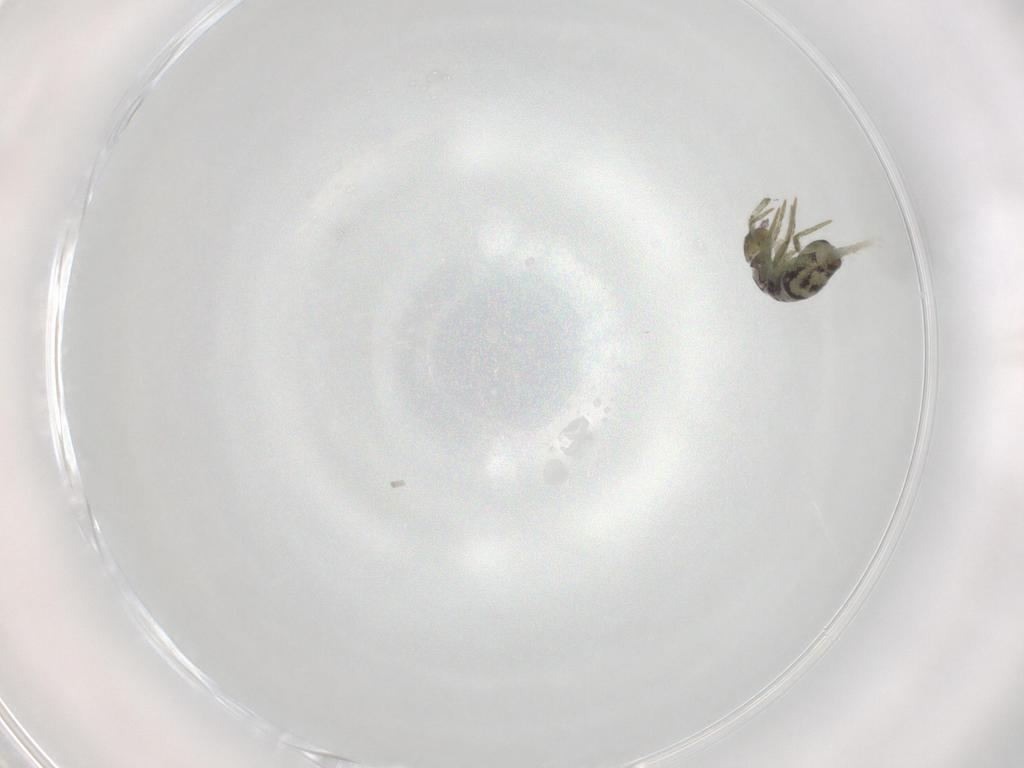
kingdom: Animalia
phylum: Arthropoda
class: Collembola
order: Entomobryomorpha
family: Entomobryidae
